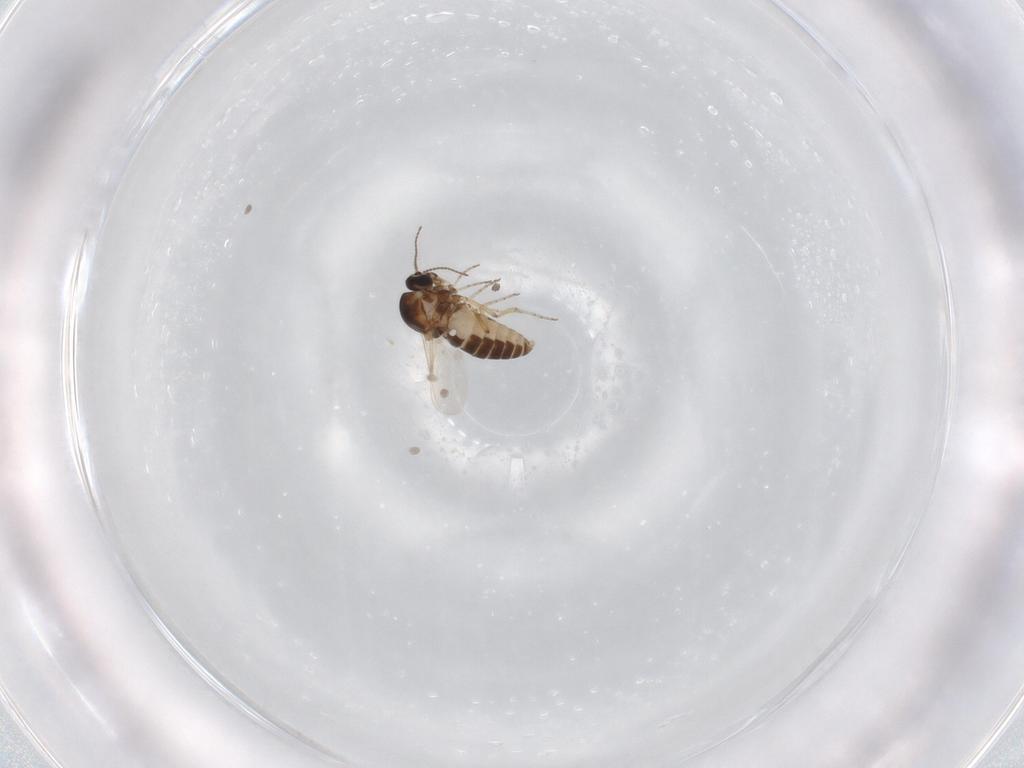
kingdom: Animalia
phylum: Arthropoda
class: Insecta
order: Diptera
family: Ceratopogonidae
